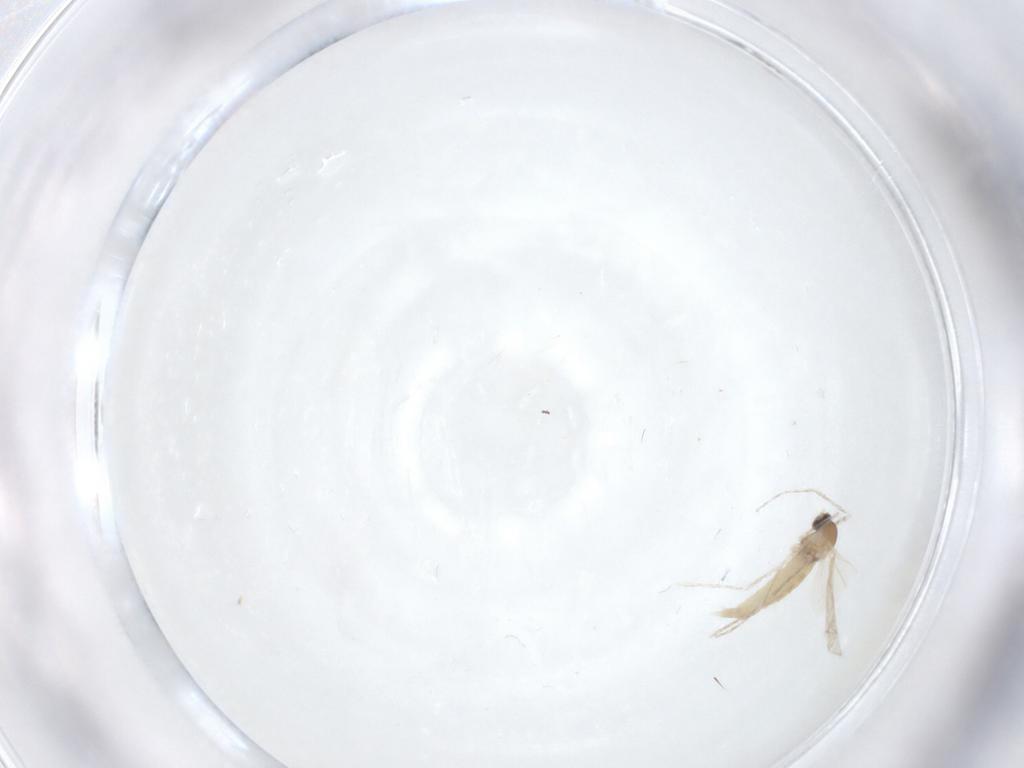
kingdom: Animalia
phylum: Arthropoda
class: Insecta
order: Diptera
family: Cecidomyiidae
